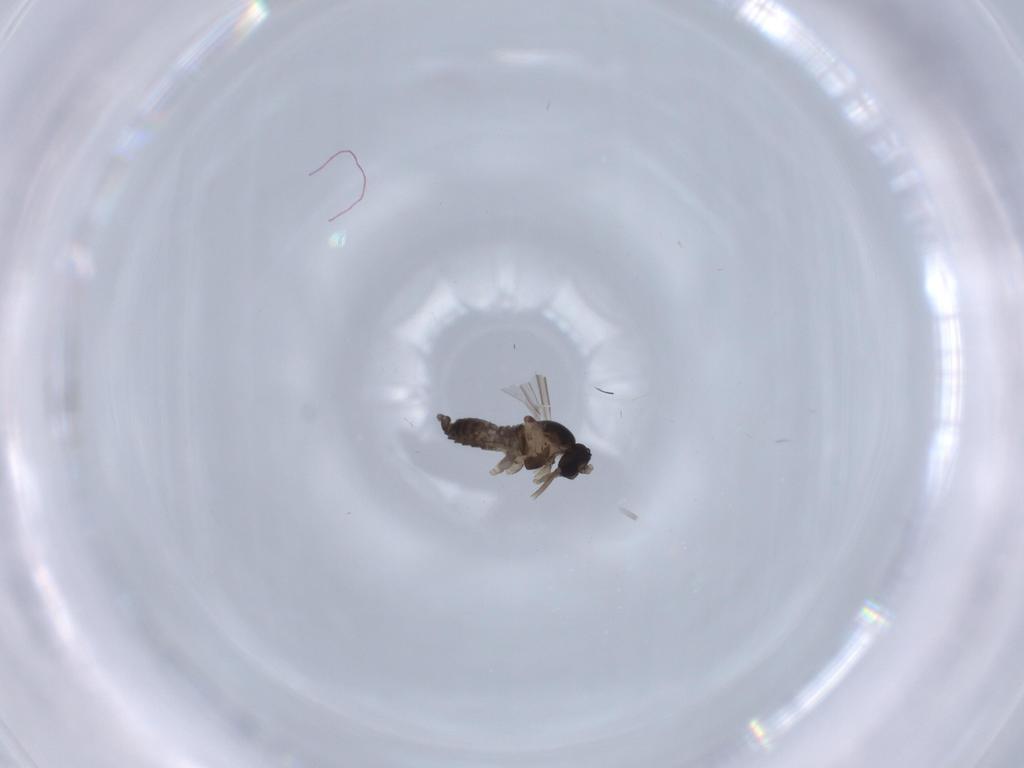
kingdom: Animalia
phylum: Arthropoda
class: Insecta
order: Diptera
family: Cecidomyiidae
